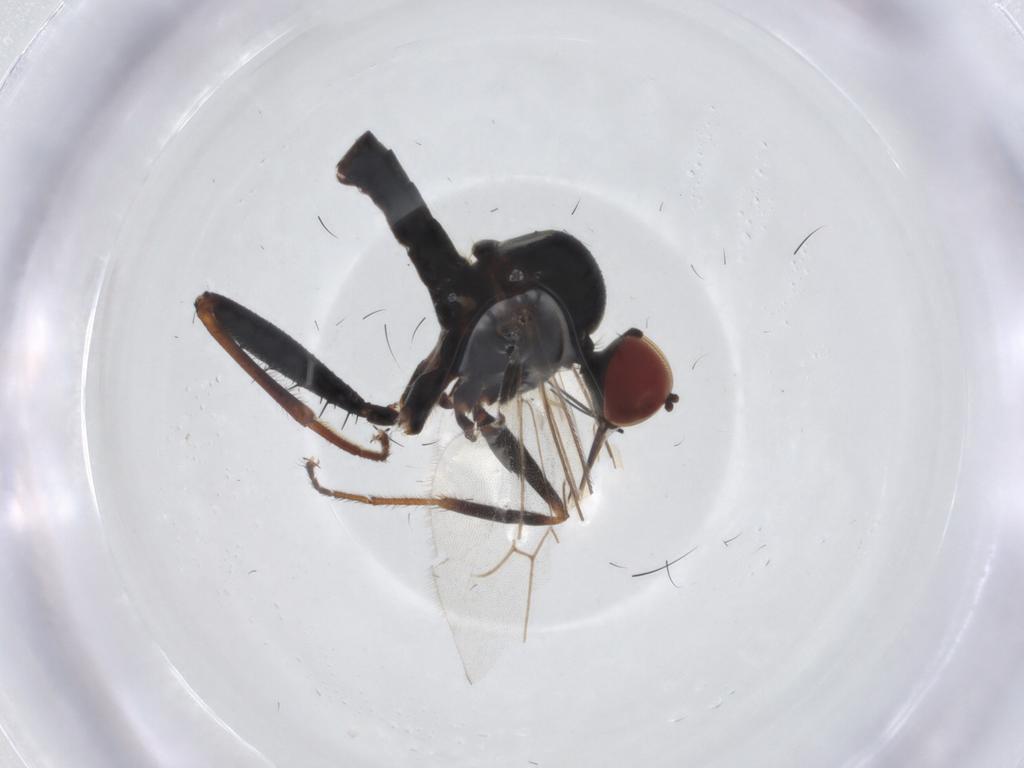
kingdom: Animalia
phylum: Arthropoda
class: Insecta
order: Diptera
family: Hybotidae
